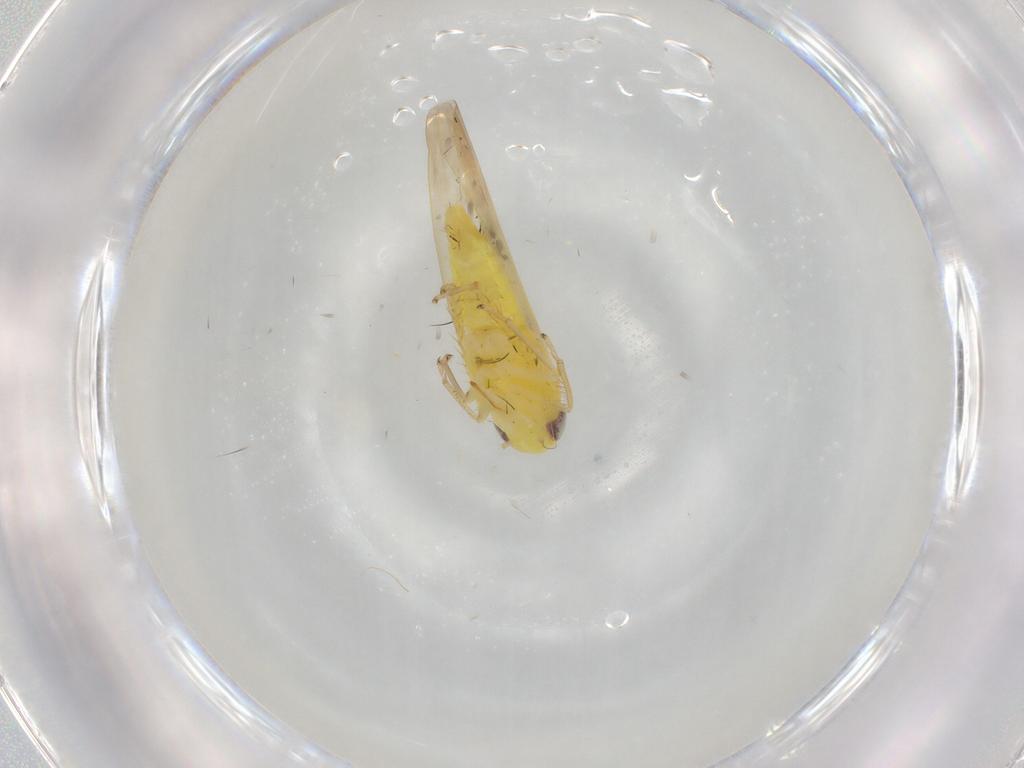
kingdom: Animalia
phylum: Arthropoda
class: Insecta
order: Hemiptera
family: Cicadellidae
